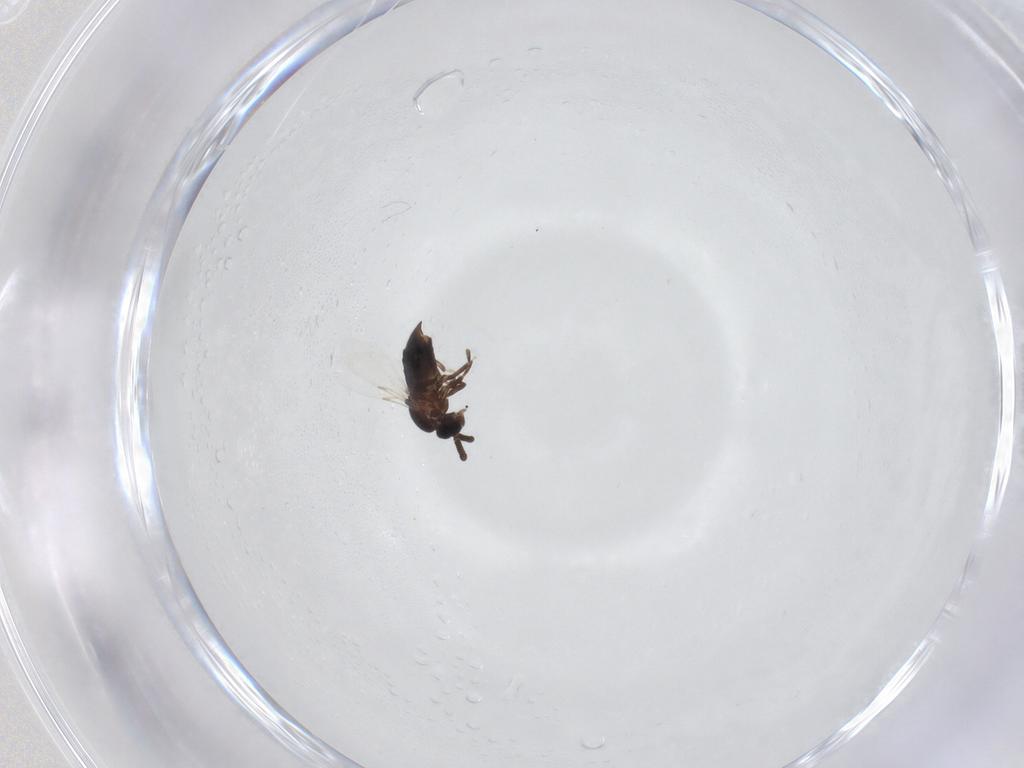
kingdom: Animalia
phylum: Arthropoda
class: Insecta
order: Diptera
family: Scatopsidae
